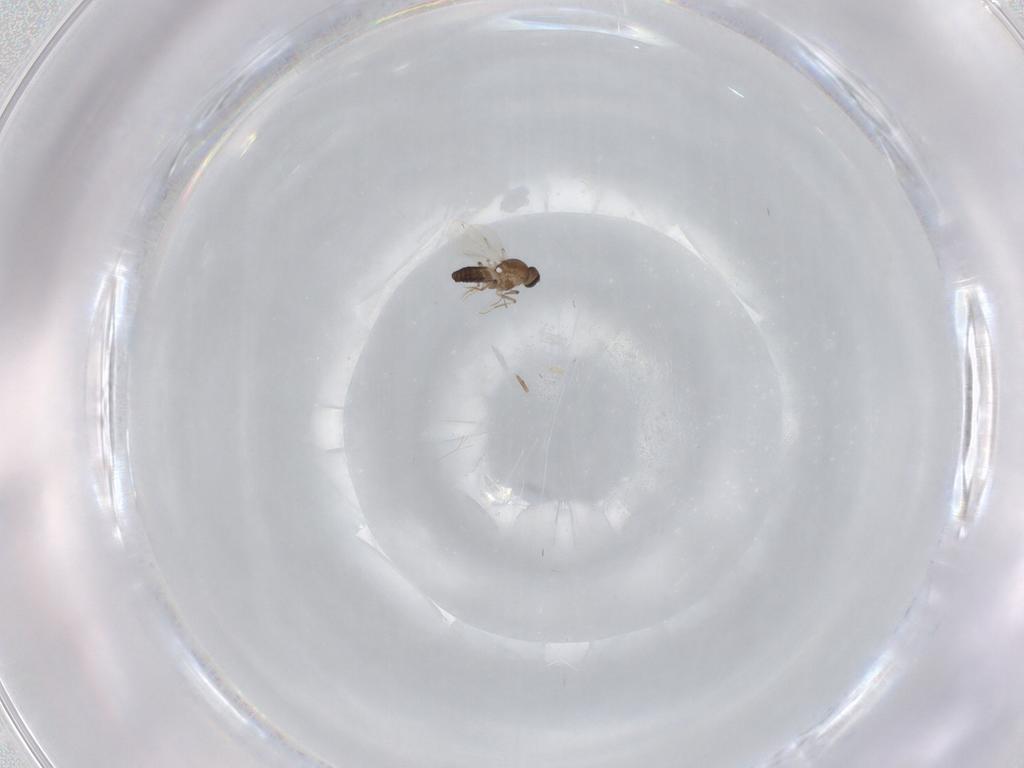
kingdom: Animalia
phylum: Arthropoda
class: Insecta
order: Diptera
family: Ceratopogonidae
